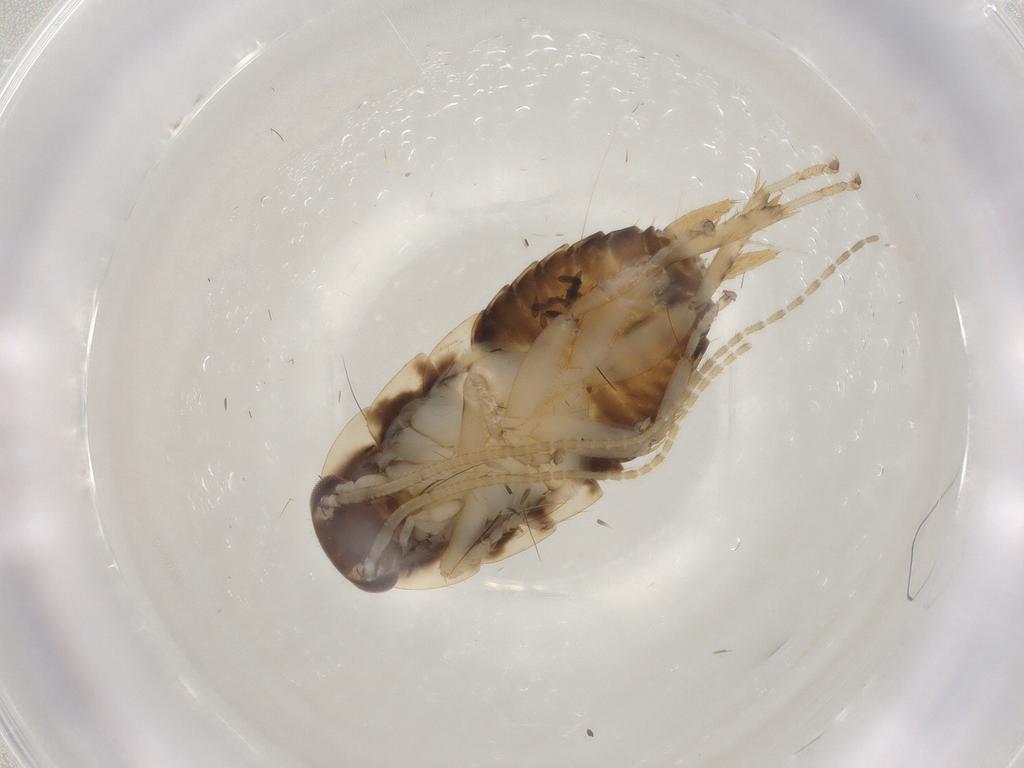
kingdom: Animalia
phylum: Arthropoda
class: Insecta
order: Blattodea
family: Ectobiidae
